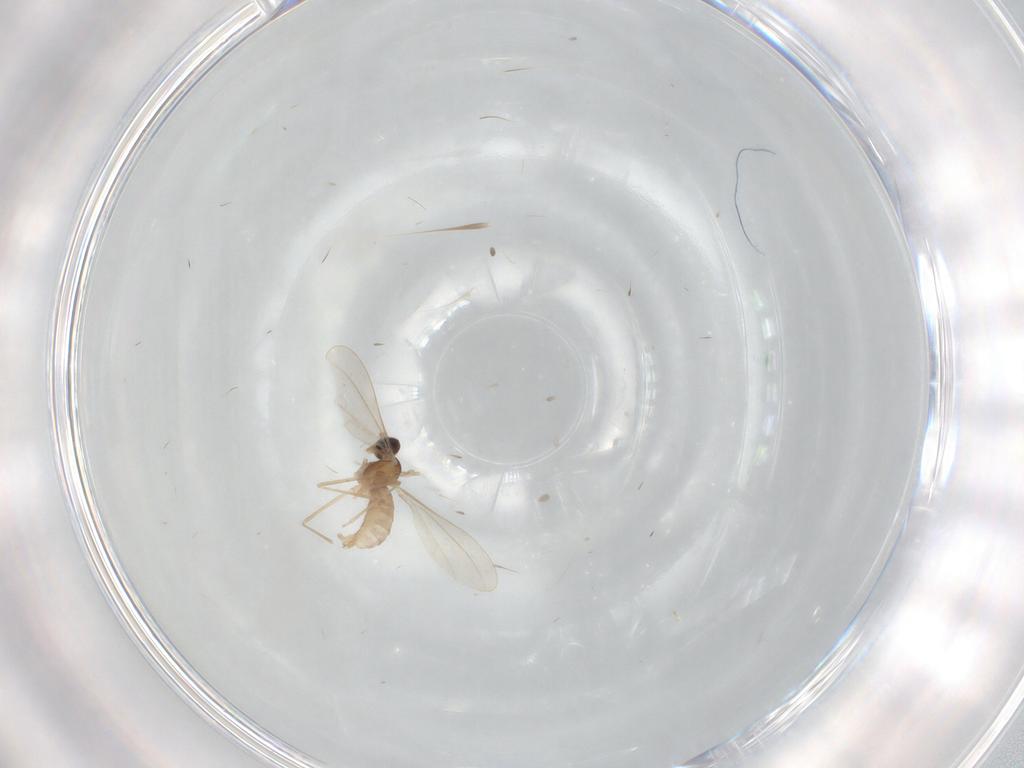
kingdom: Animalia
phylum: Arthropoda
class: Insecta
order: Diptera
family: Cecidomyiidae
